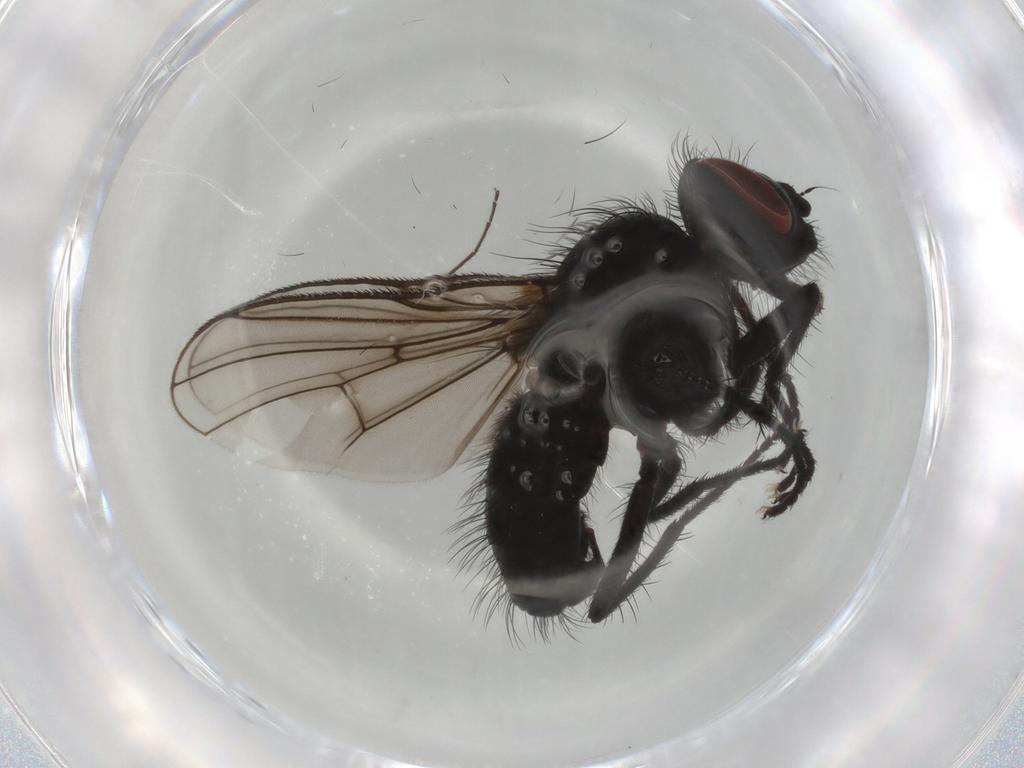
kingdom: Animalia
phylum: Arthropoda
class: Insecta
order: Diptera
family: Muscidae
